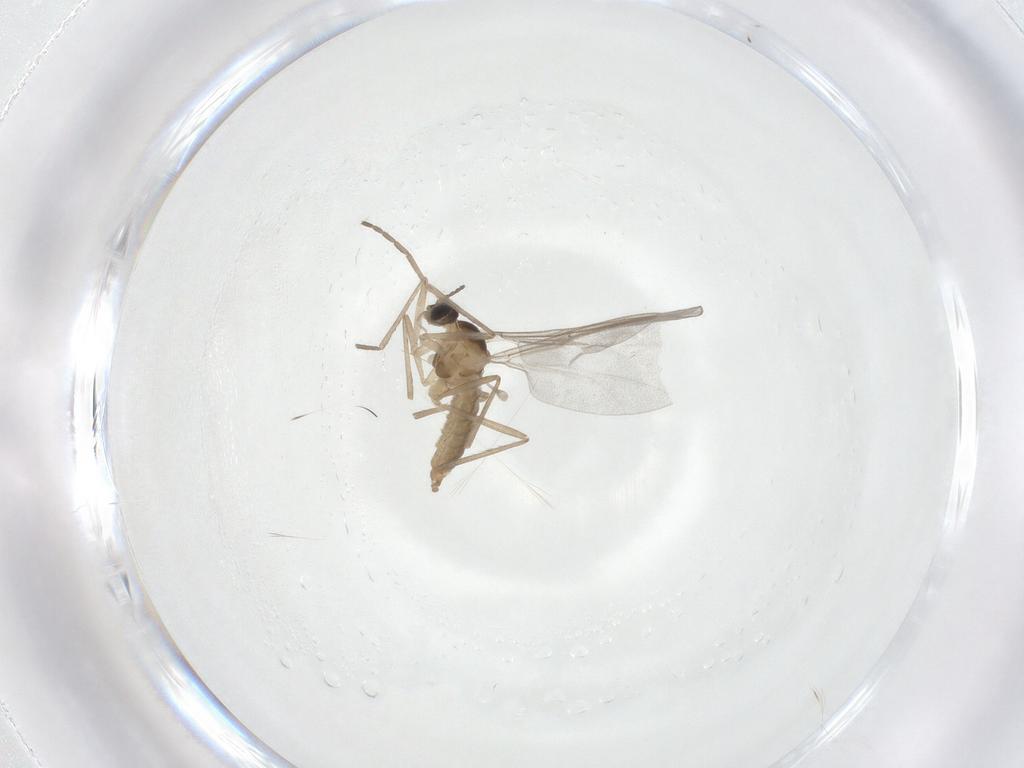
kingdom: Animalia
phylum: Arthropoda
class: Insecta
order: Diptera
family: Cecidomyiidae
